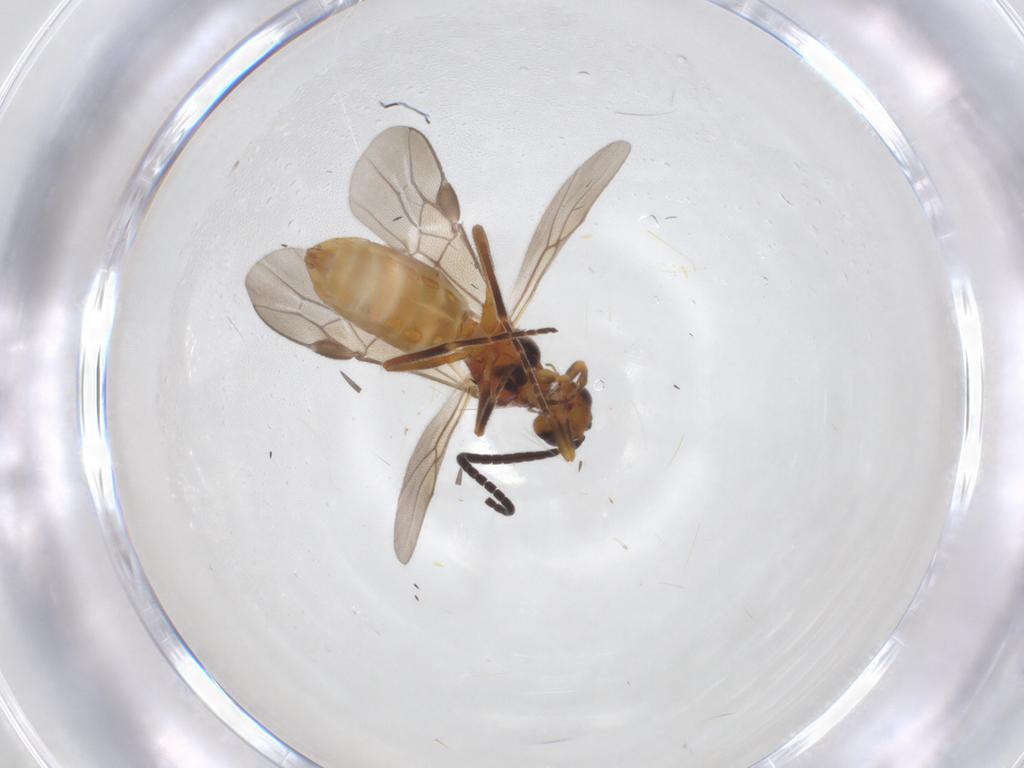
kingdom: Animalia
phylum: Arthropoda
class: Insecta
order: Hymenoptera
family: Braconidae
